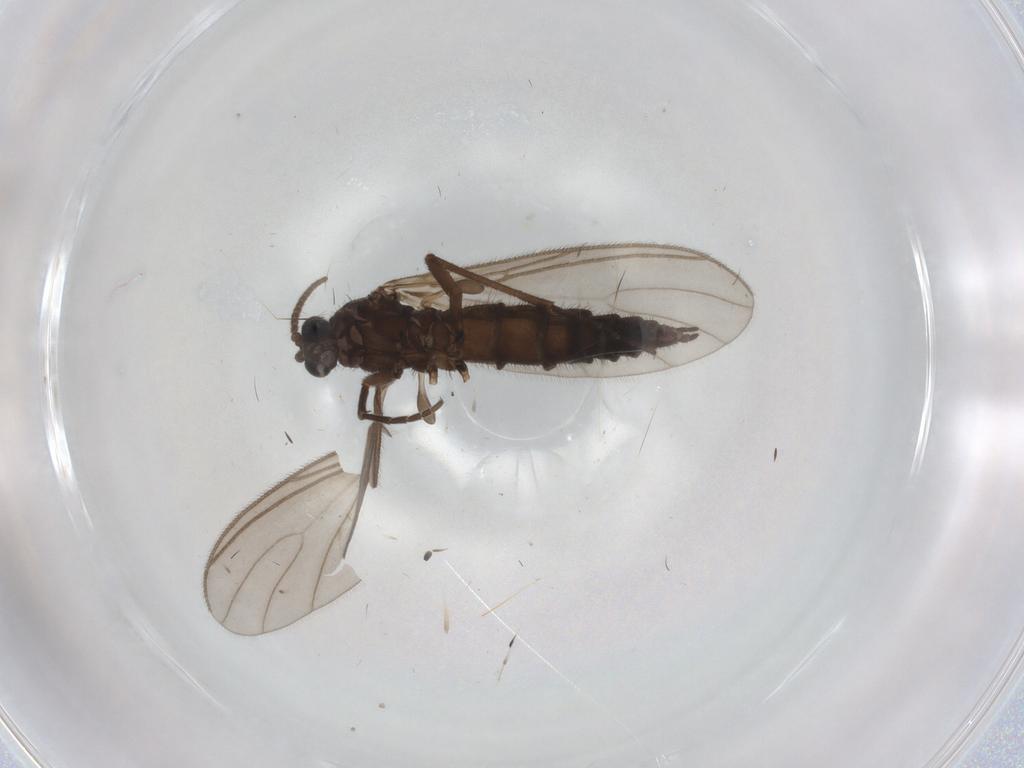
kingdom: Animalia
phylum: Arthropoda
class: Insecta
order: Diptera
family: Sciaridae
